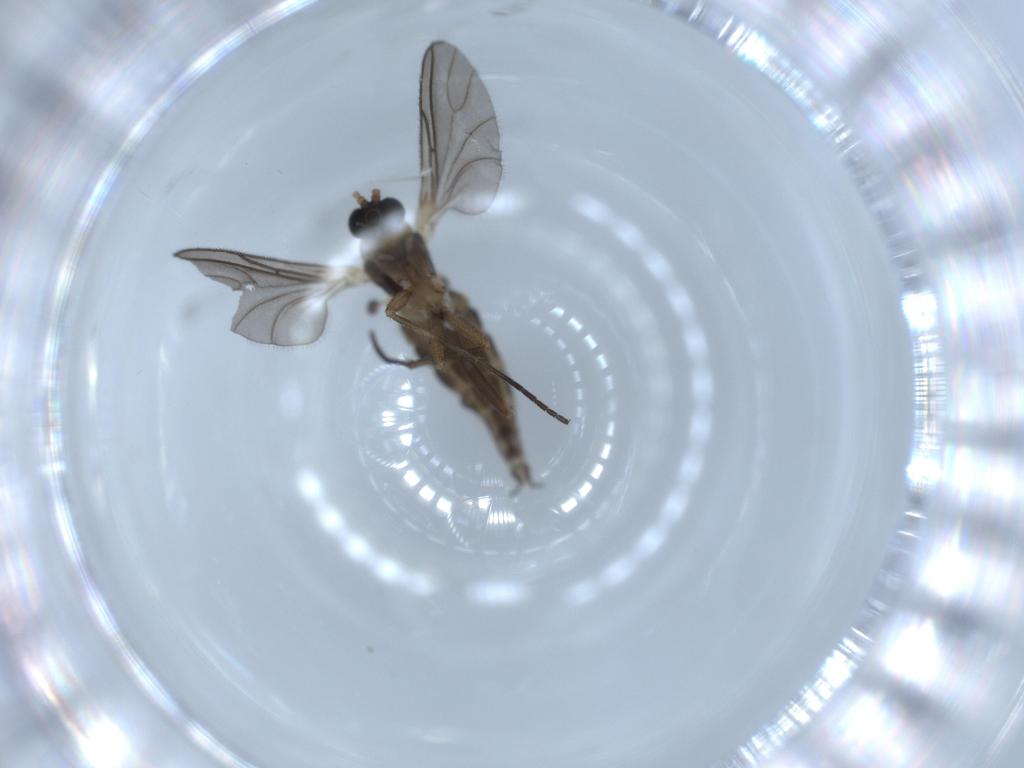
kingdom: Animalia
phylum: Arthropoda
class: Insecta
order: Diptera
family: Sciaridae
